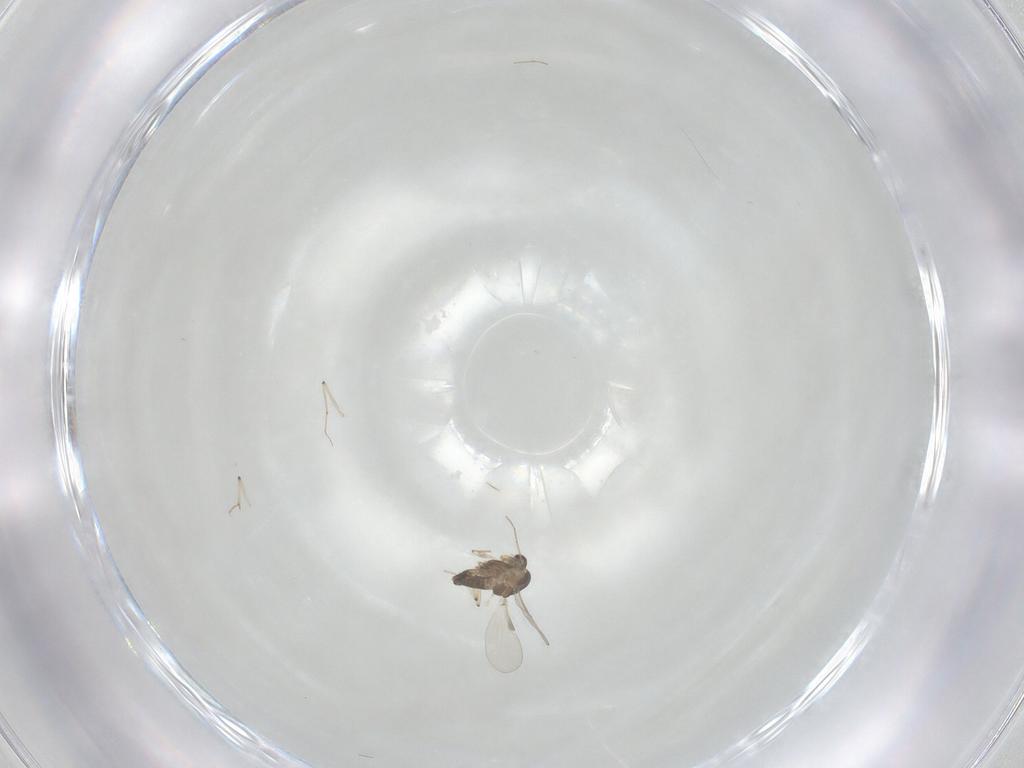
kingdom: Animalia
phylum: Arthropoda
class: Insecta
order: Diptera
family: Chironomidae
